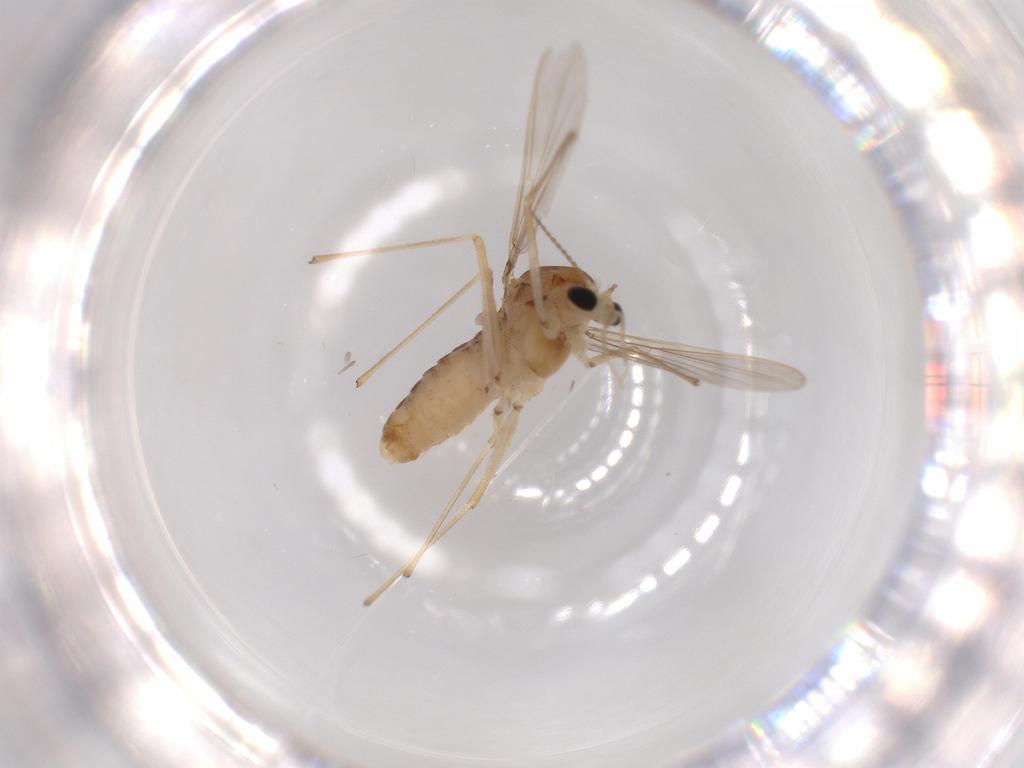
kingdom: Animalia
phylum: Arthropoda
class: Insecta
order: Diptera
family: Chironomidae
